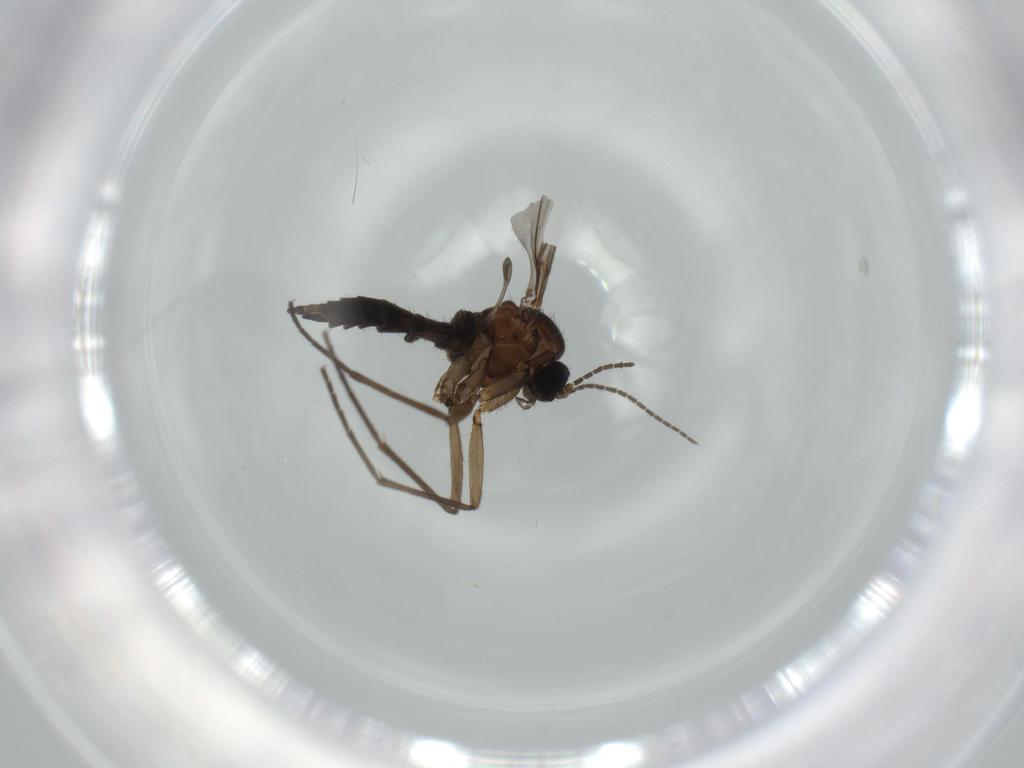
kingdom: Animalia
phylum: Arthropoda
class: Insecta
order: Diptera
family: Sciaridae
